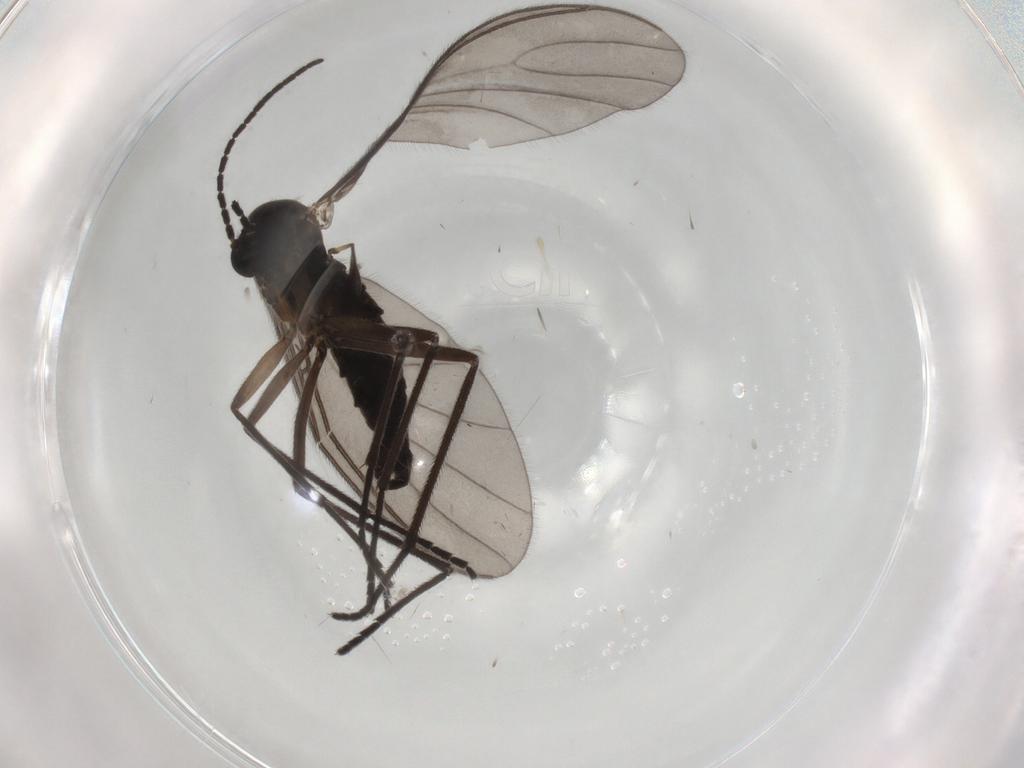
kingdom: Animalia
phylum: Arthropoda
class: Insecta
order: Diptera
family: Sciaridae
